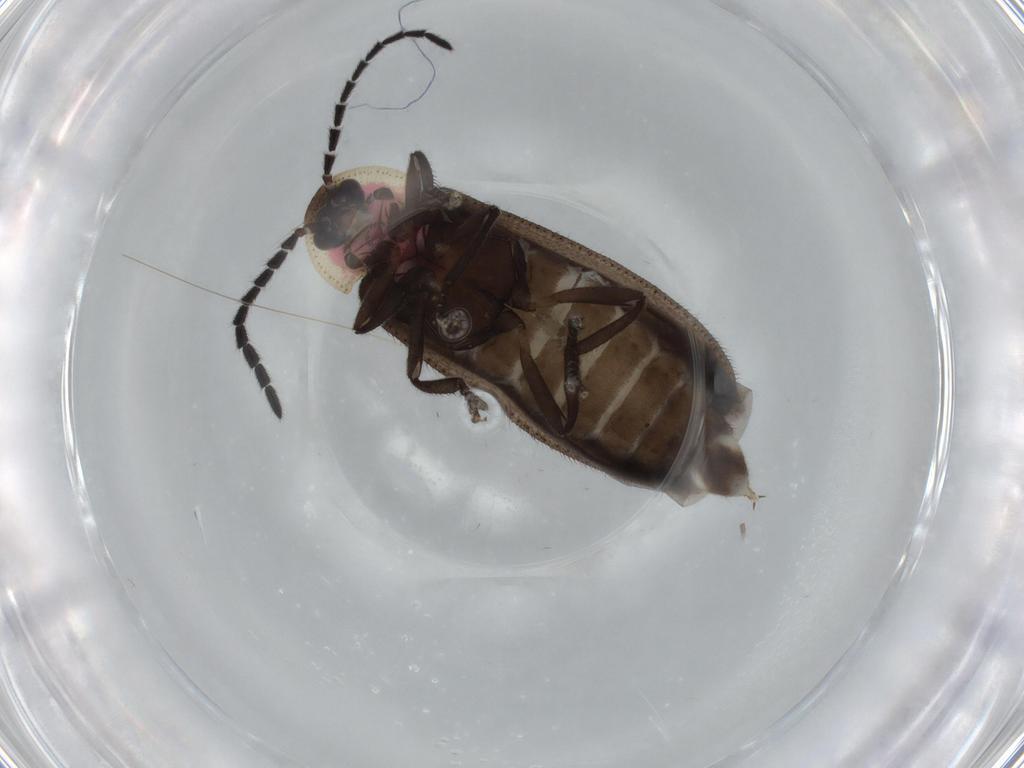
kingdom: Animalia
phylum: Arthropoda
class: Insecta
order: Coleoptera
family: Lampyridae
